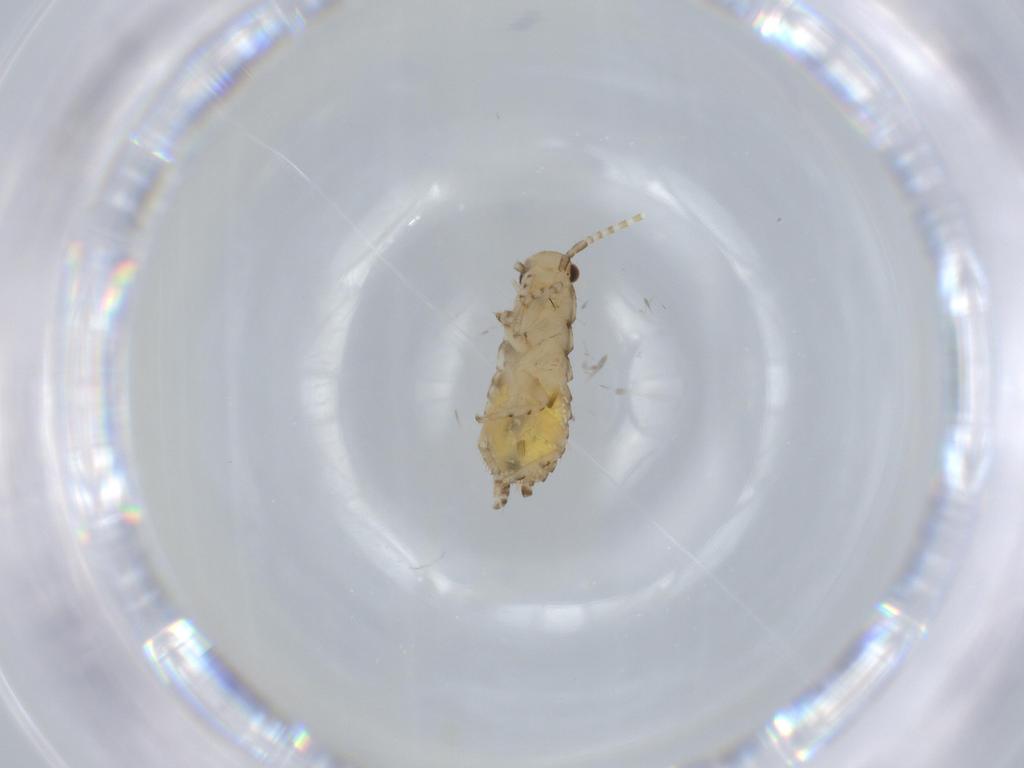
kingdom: Animalia
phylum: Arthropoda
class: Insecta
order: Blattodea
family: Ectobiidae
